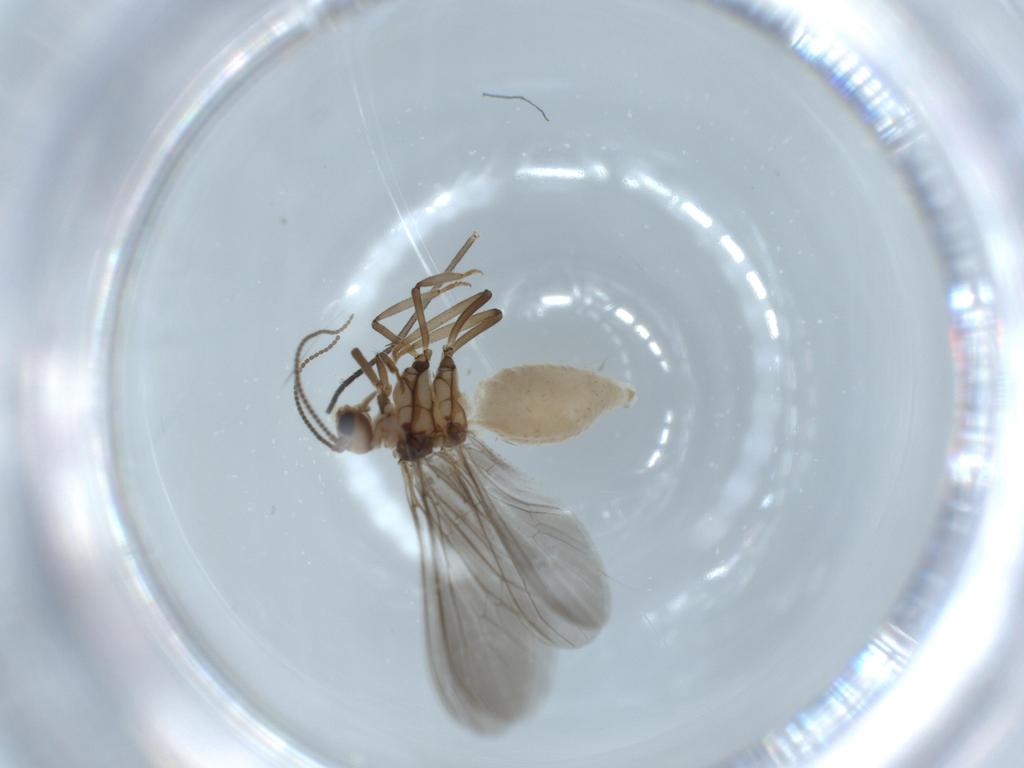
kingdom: Animalia
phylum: Arthropoda
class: Insecta
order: Neuroptera
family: Coniopterygidae
